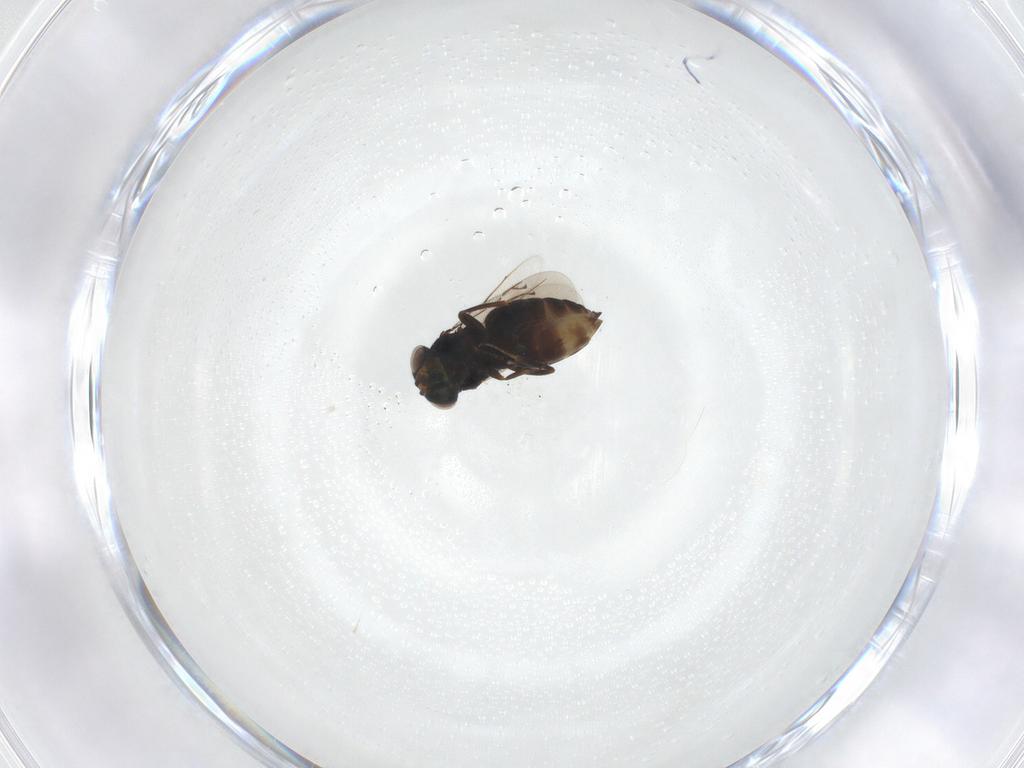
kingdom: Animalia
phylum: Arthropoda
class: Insecta
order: Hymenoptera
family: Eunotidae
